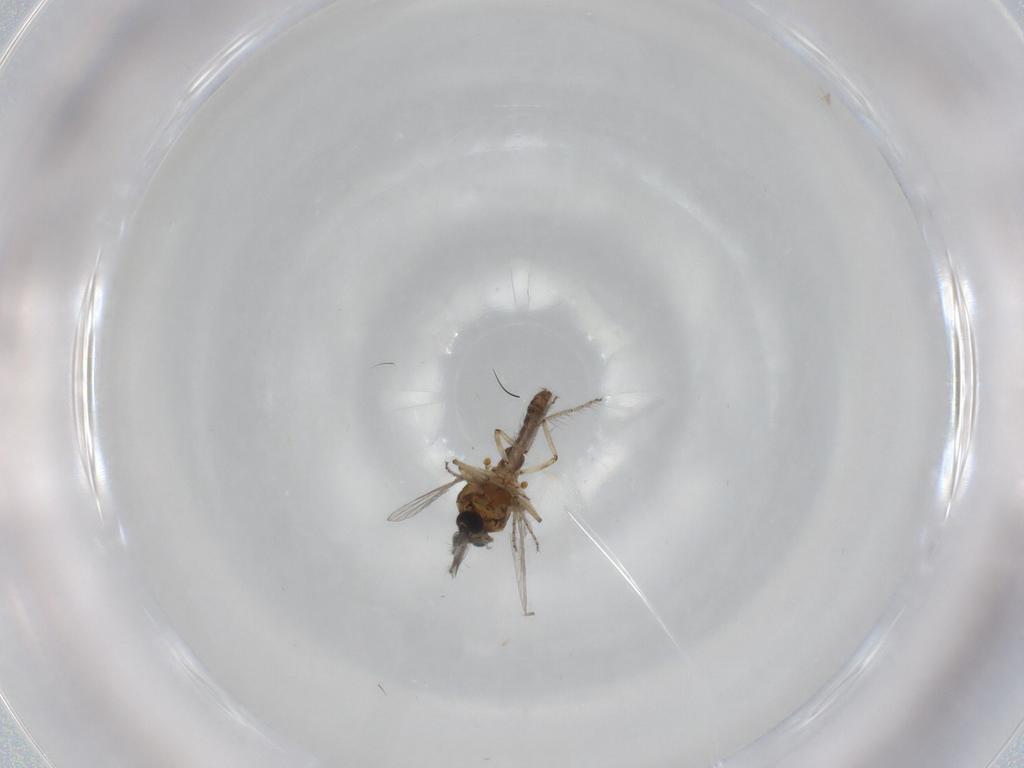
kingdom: Animalia
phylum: Arthropoda
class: Insecta
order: Diptera
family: Ceratopogonidae
